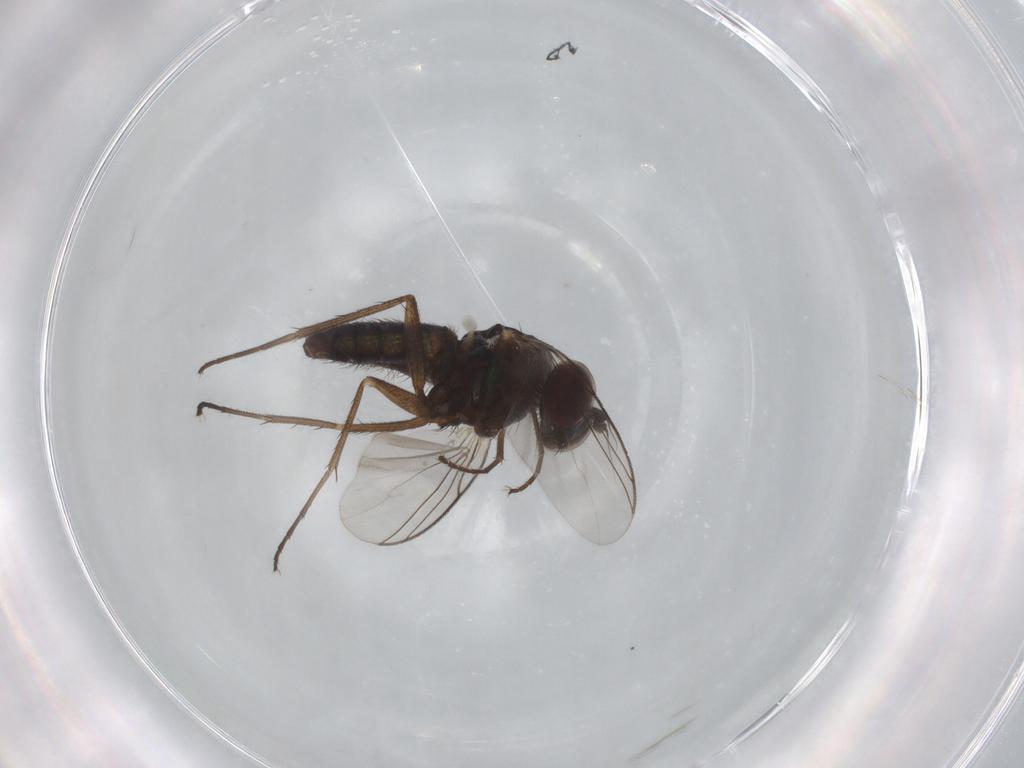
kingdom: Animalia
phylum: Arthropoda
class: Insecta
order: Diptera
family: Dolichopodidae
